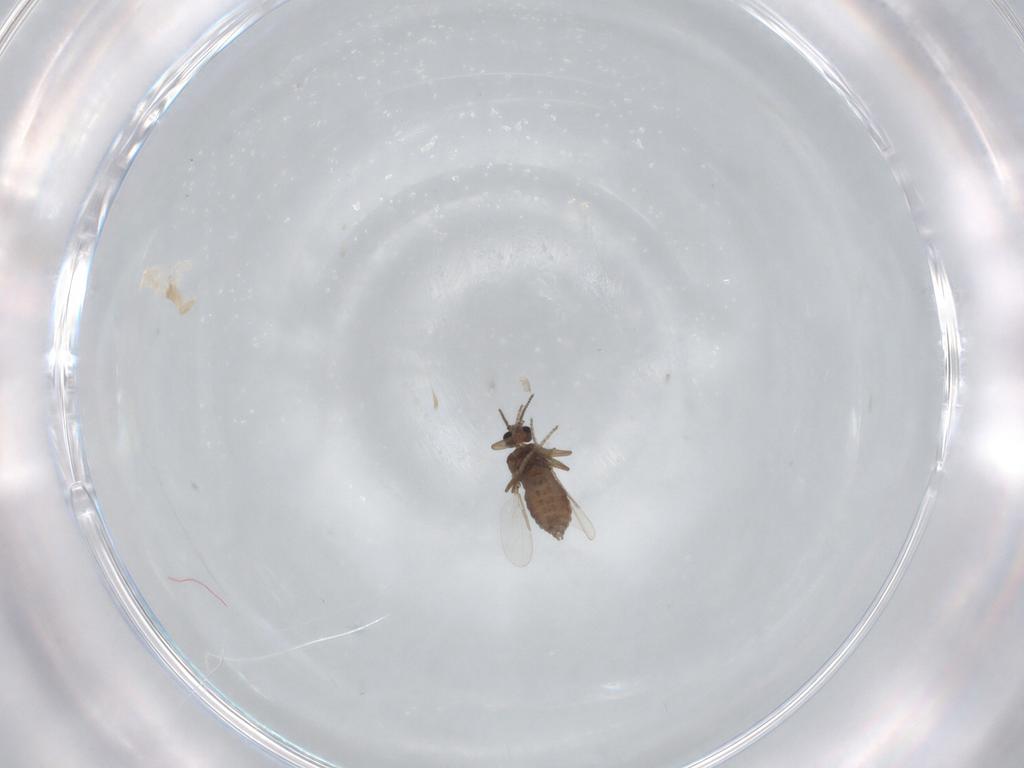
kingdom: Animalia
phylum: Arthropoda
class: Insecta
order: Diptera
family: Ceratopogonidae
